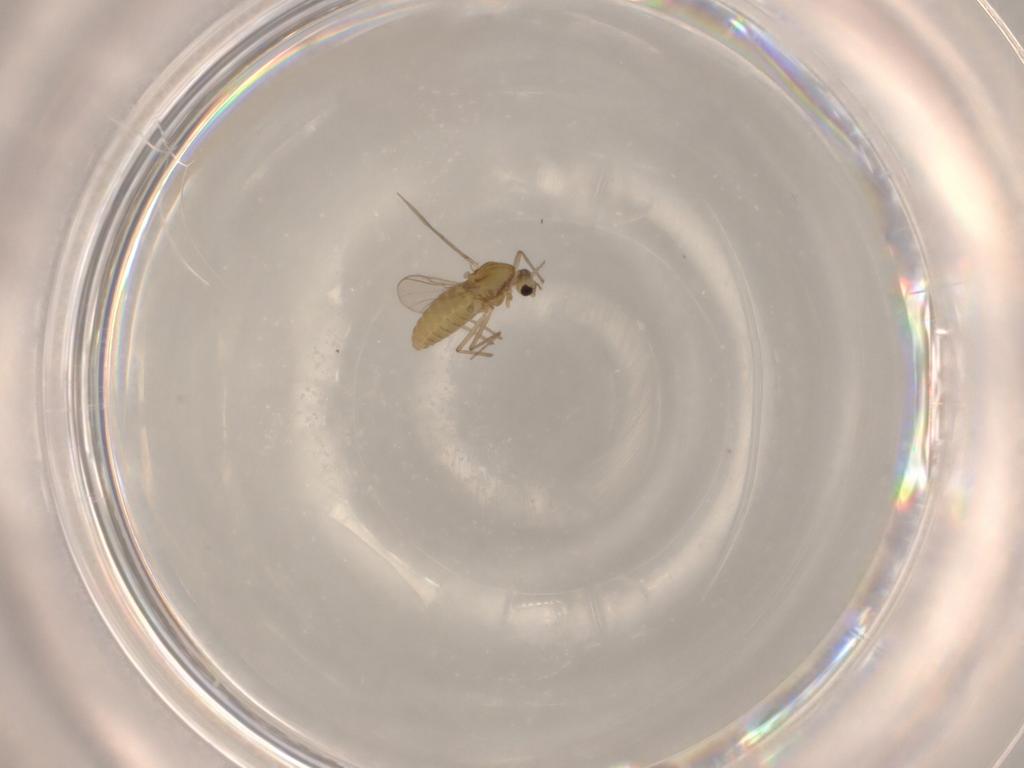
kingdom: Animalia
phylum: Arthropoda
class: Insecta
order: Diptera
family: Chironomidae
